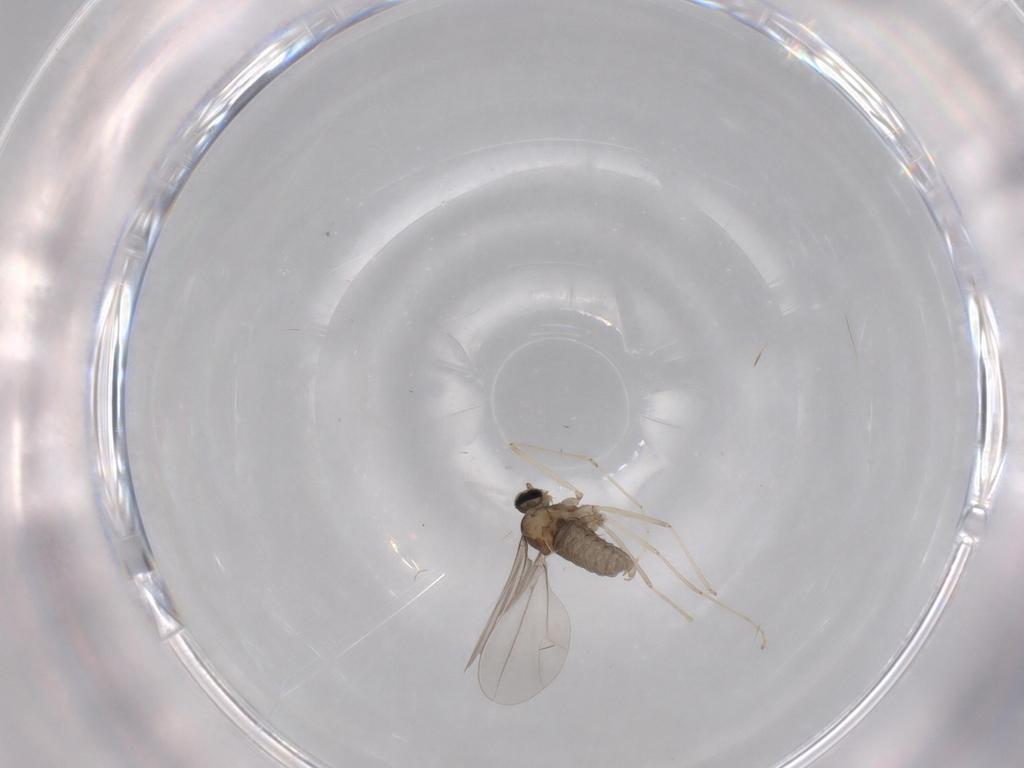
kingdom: Animalia
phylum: Arthropoda
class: Insecta
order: Diptera
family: Cecidomyiidae
